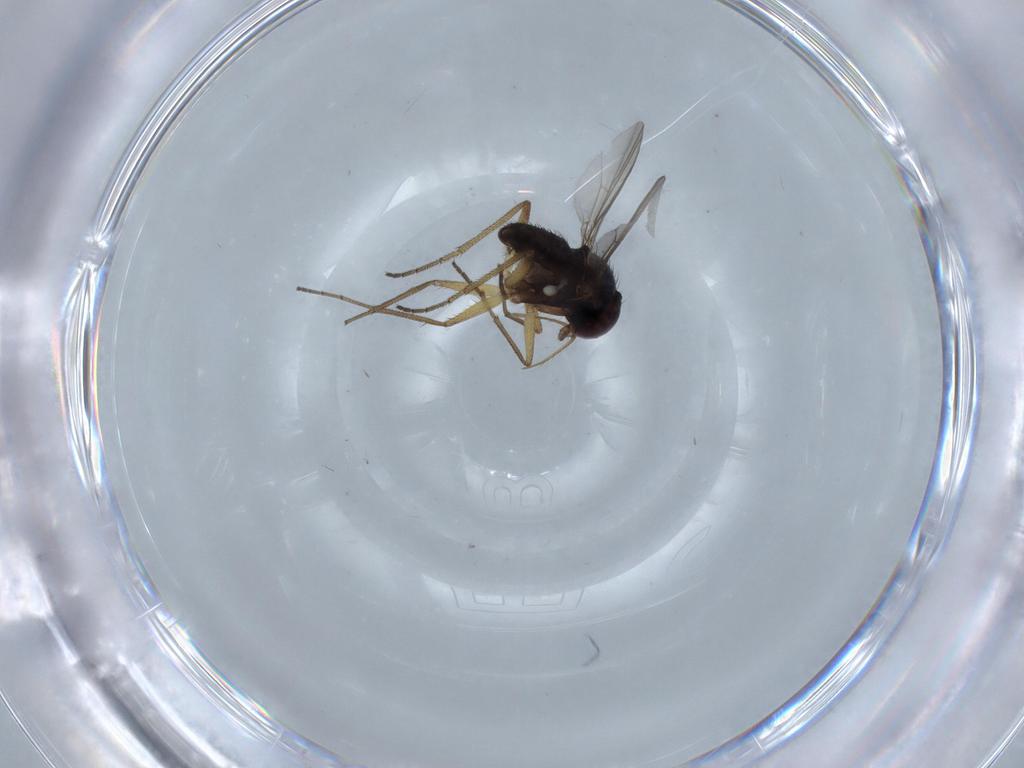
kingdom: Animalia
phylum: Arthropoda
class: Insecta
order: Diptera
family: Dolichopodidae
